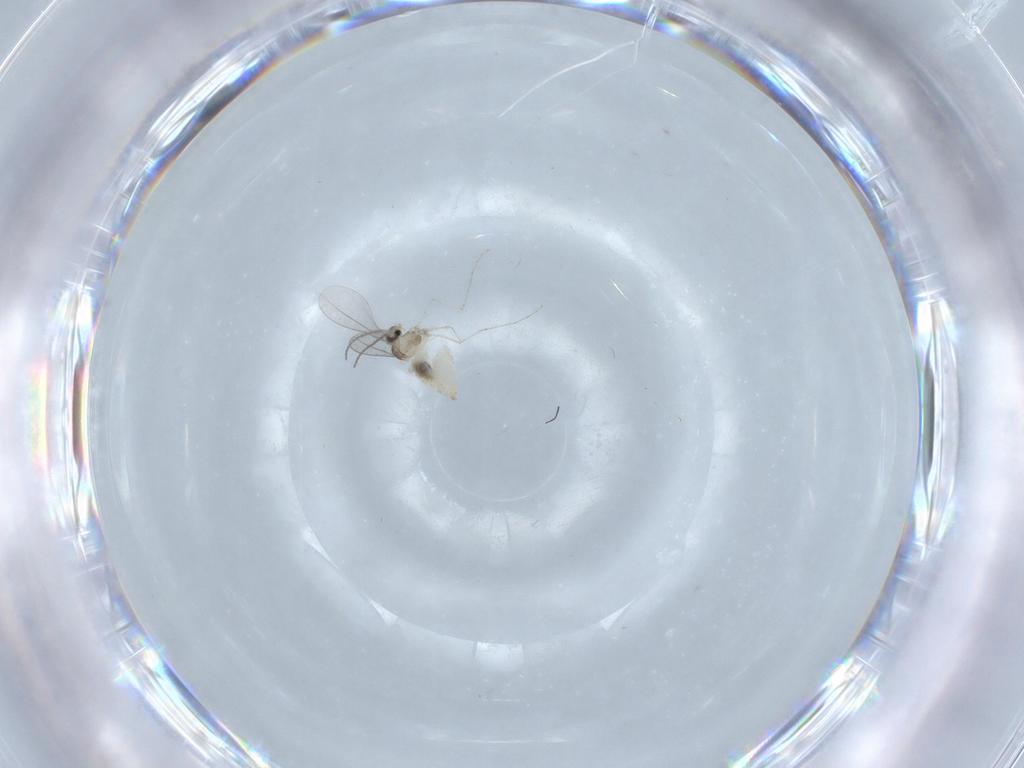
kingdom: Animalia
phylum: Arthropoda
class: Insecta
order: Diptera
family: Cecidomyiidae
